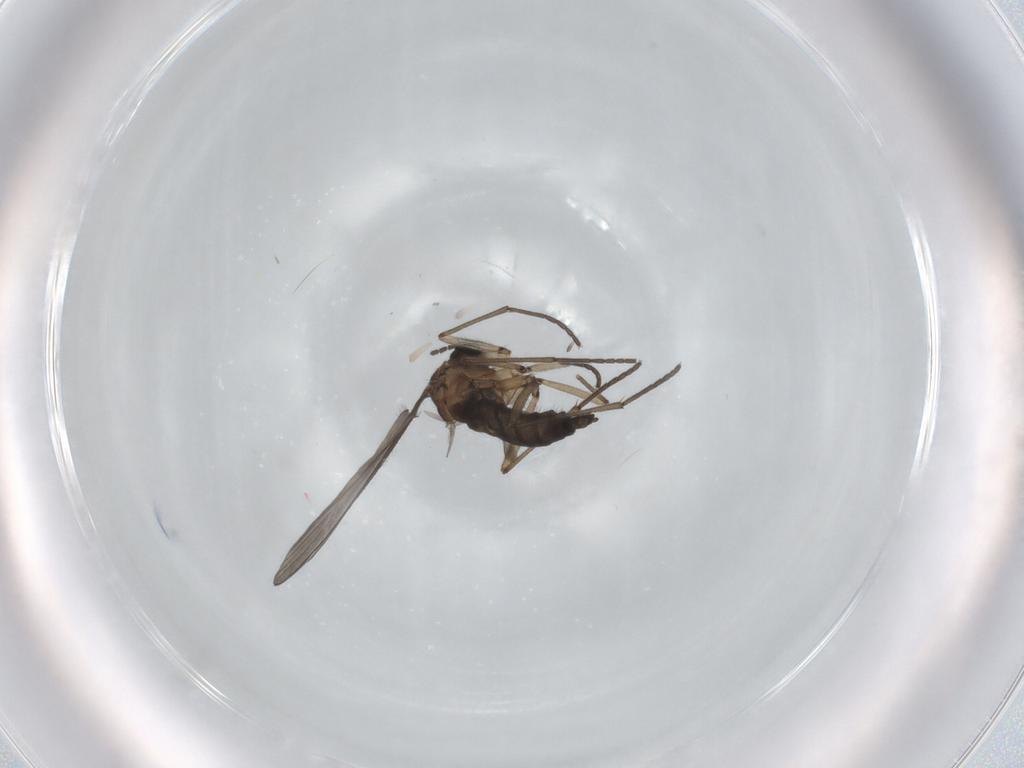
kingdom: Animalia
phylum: Arthropoda
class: Insecta
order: Diptera
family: Sciaridae
